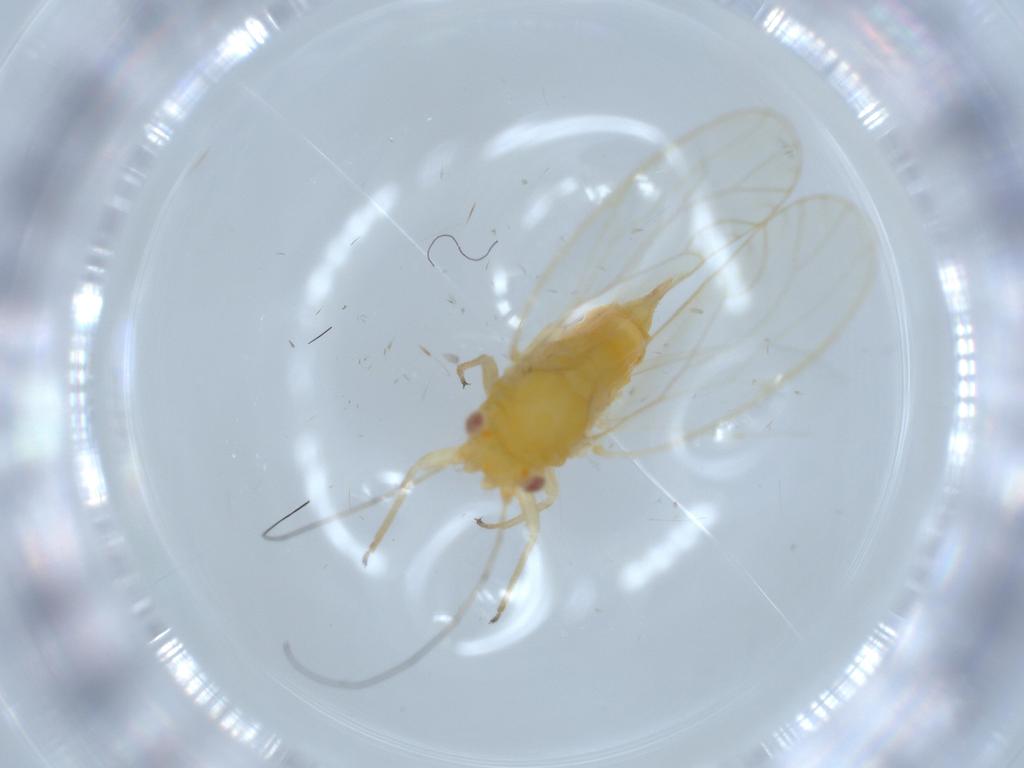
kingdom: Animalia
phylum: Arthropoda
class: Insecta
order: Hemiptera
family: Psyllidae
